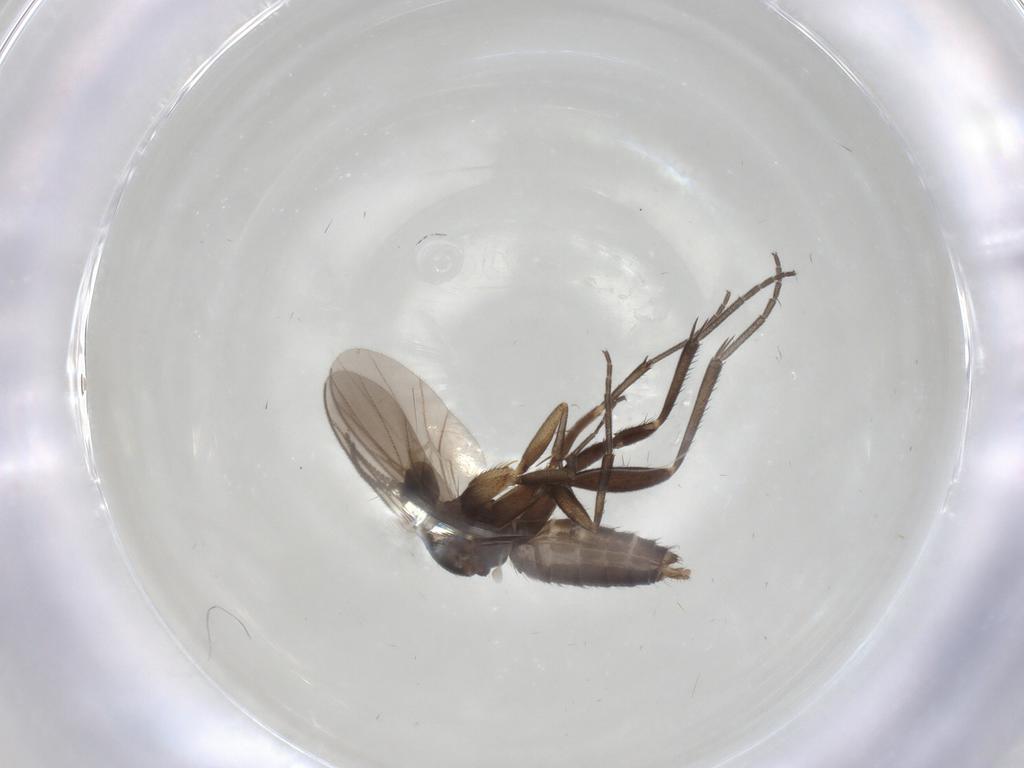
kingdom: Animalia
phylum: Arthropoda
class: Insecta
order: Diptera
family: Mycetophilidae
